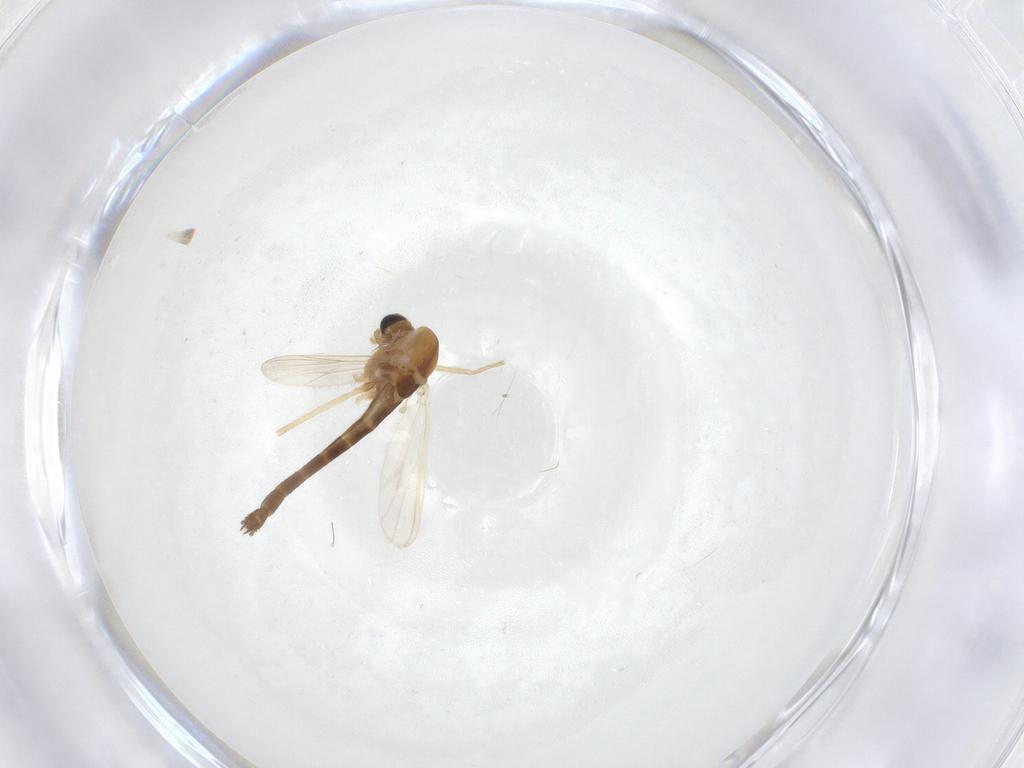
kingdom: Animalia
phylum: Arthropoda
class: Insecta
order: Diptera
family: Chironomidae
